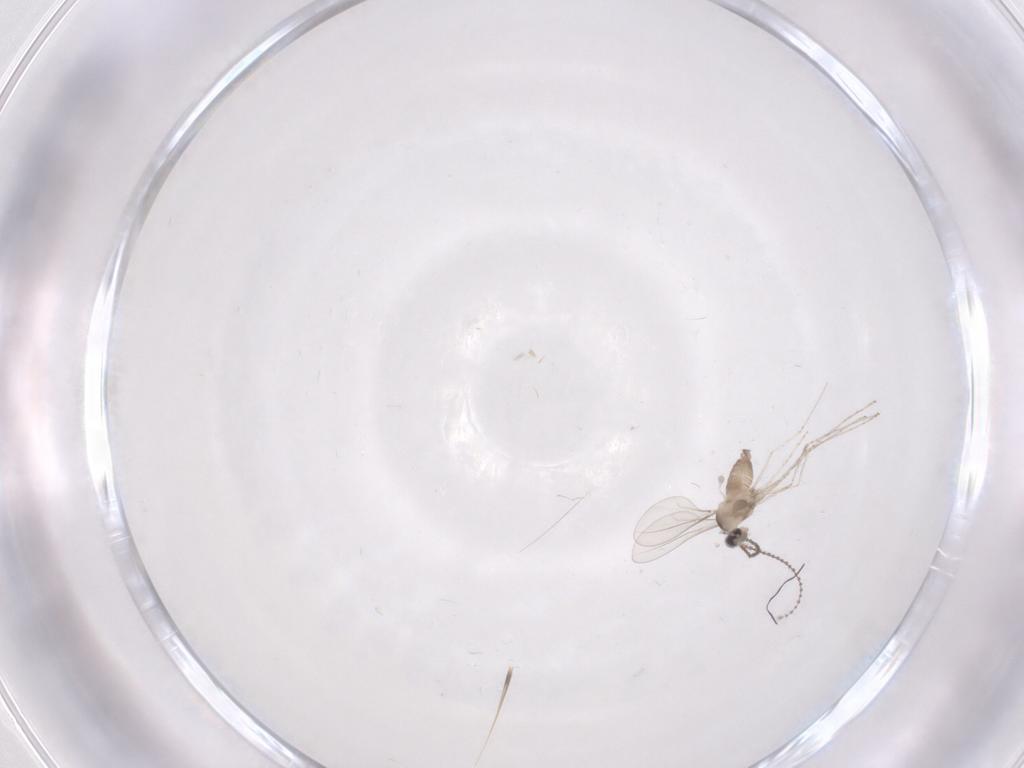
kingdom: Animalia
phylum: Arthropoda
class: Insecta
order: Diptera
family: Cecidomyiidae
